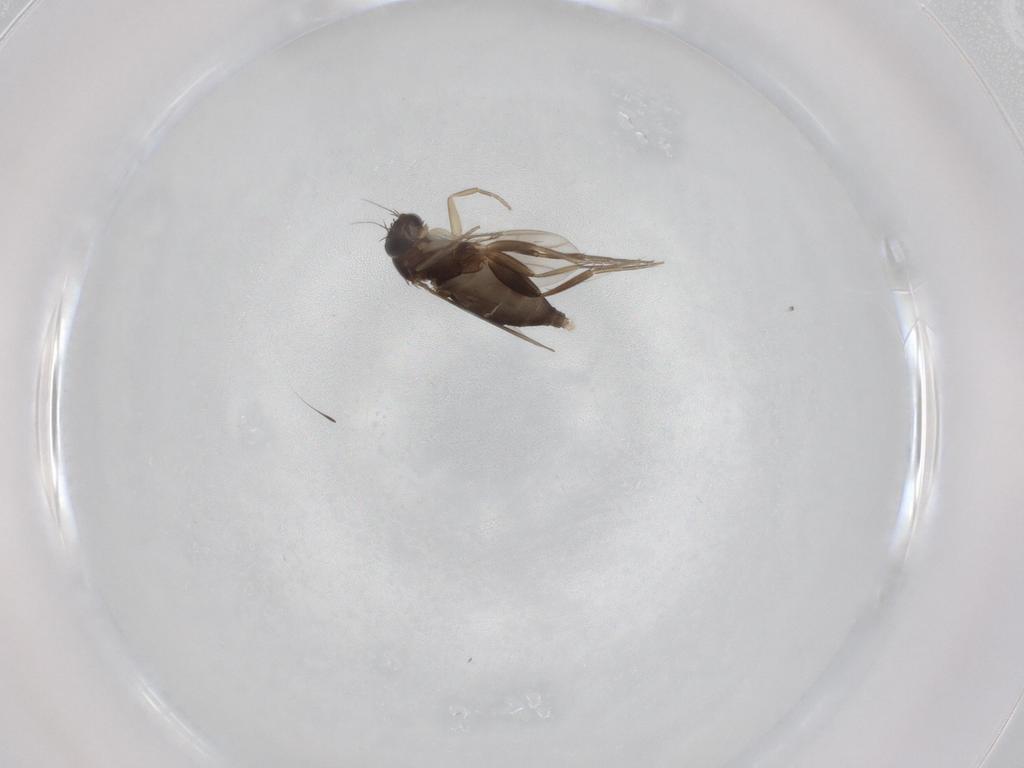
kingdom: Animalia
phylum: Arthropoda
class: Insecta
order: Diptera
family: Phoridae
